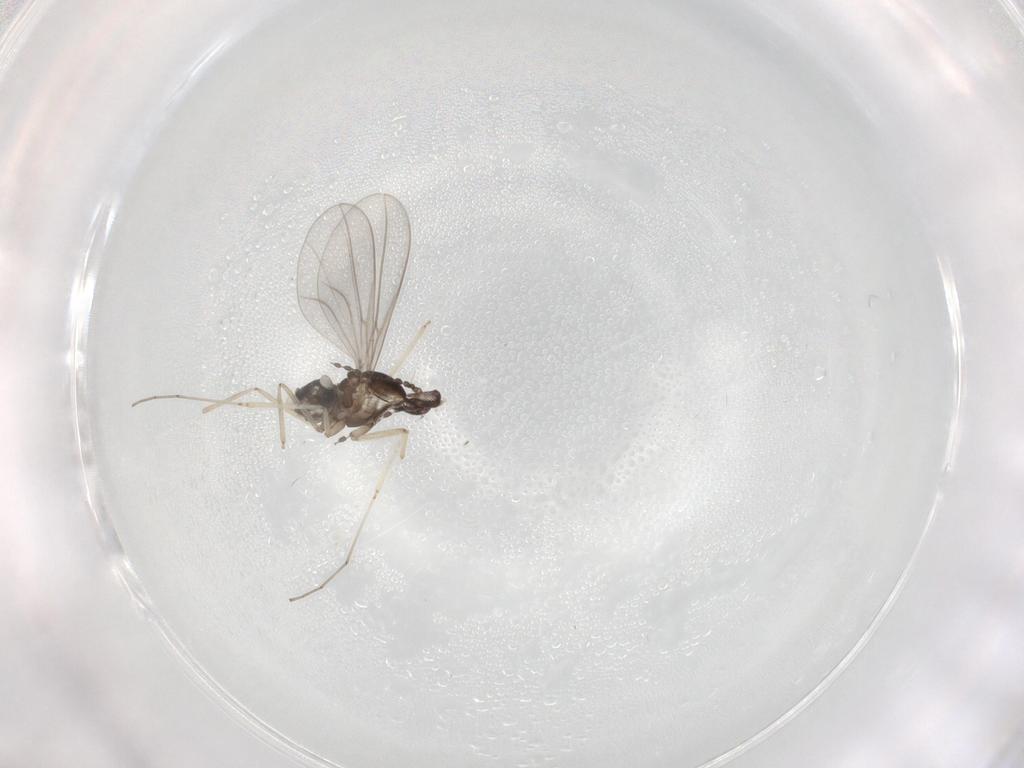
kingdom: Animalia
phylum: Arthropoda
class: Insecta
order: Diptera
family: Cecidomyiidae
